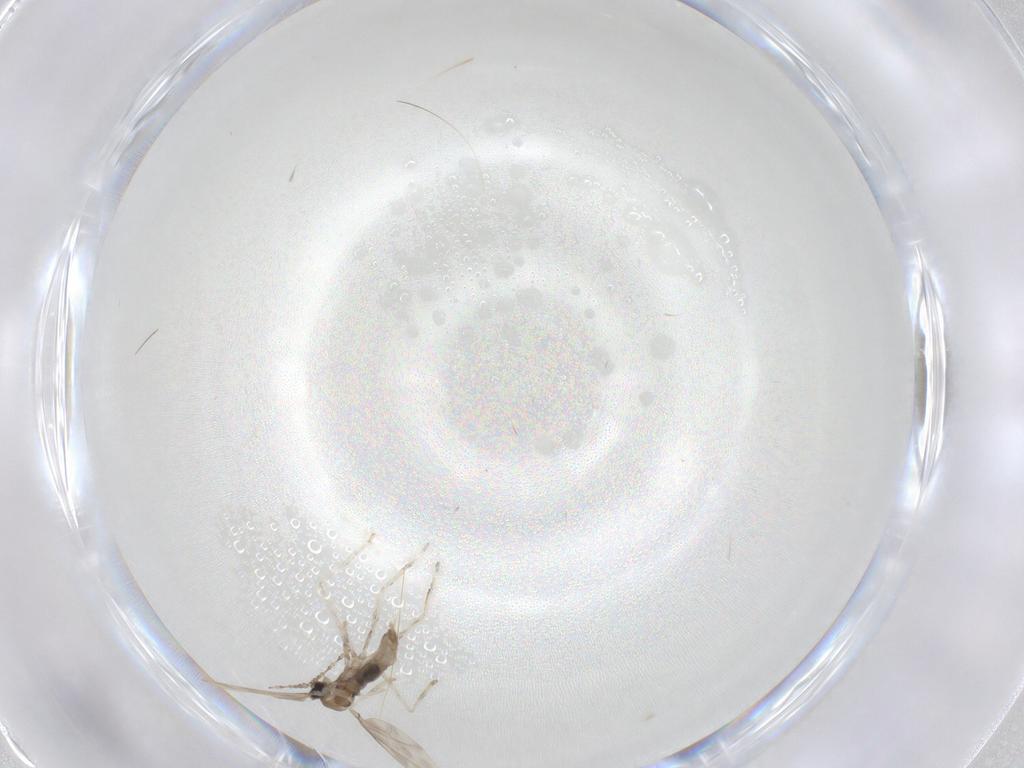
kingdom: Animalia
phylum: Arthropoda
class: Insecta
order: Diptera
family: Cecidomyiidae
